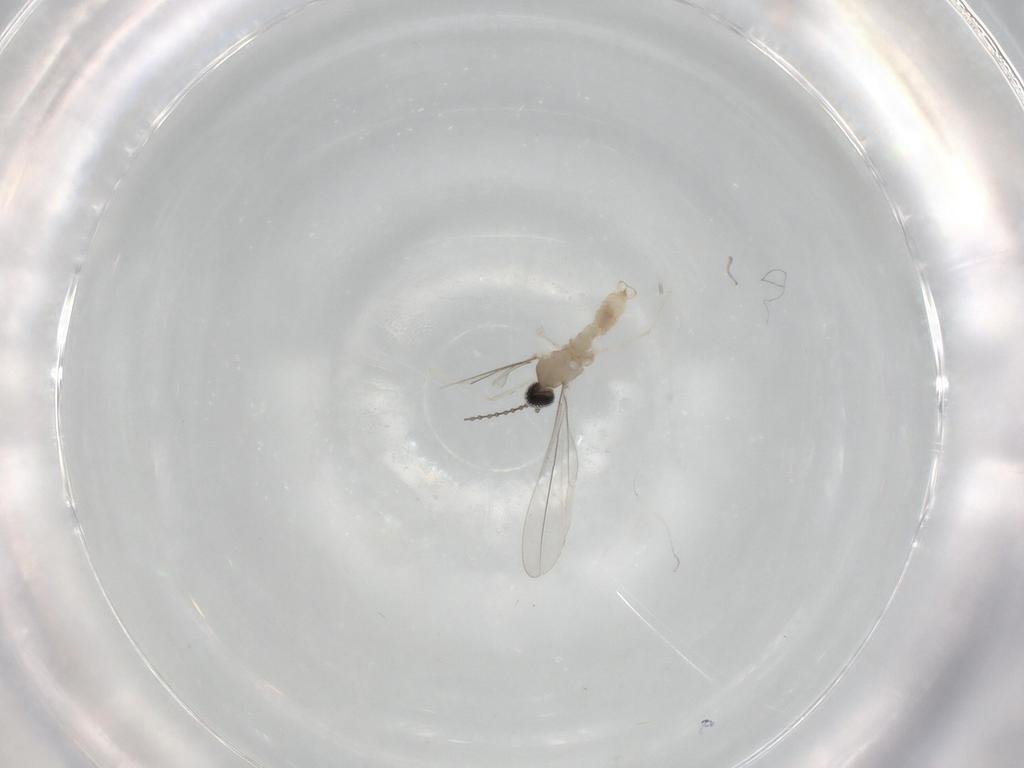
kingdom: Animalia
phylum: Arthropoda
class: Insecta
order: Diptera
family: Cecidomyiidae
